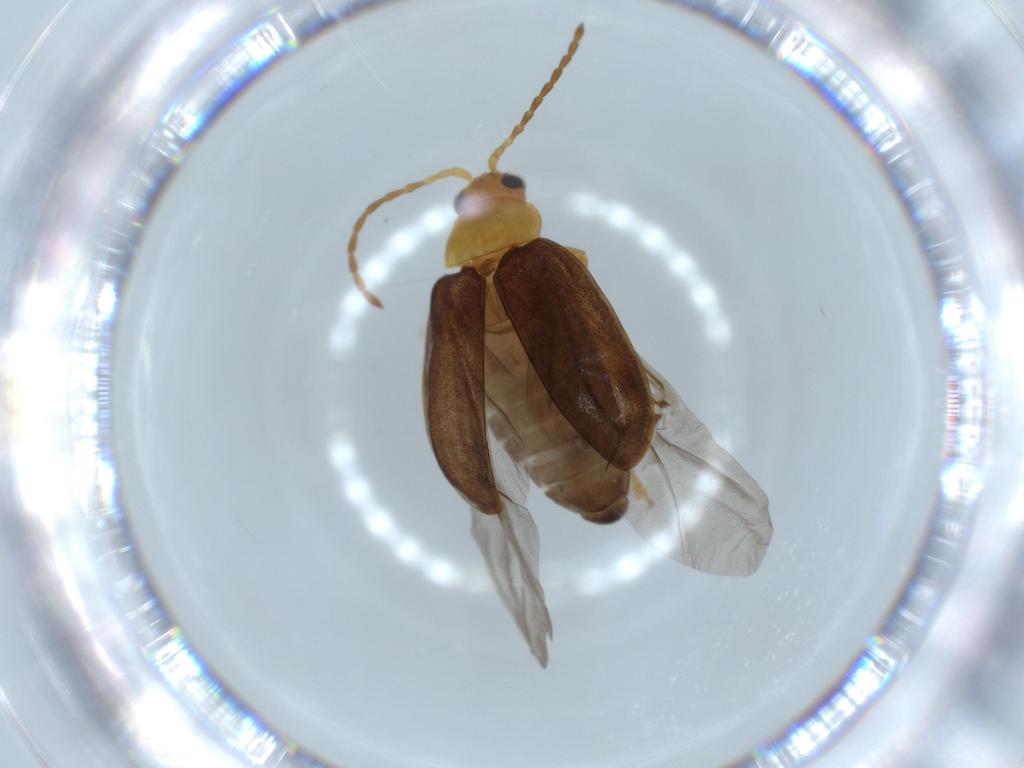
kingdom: Animalia
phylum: Arthropoda
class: Insecta
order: Coleoptera
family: Chrysomelidae
